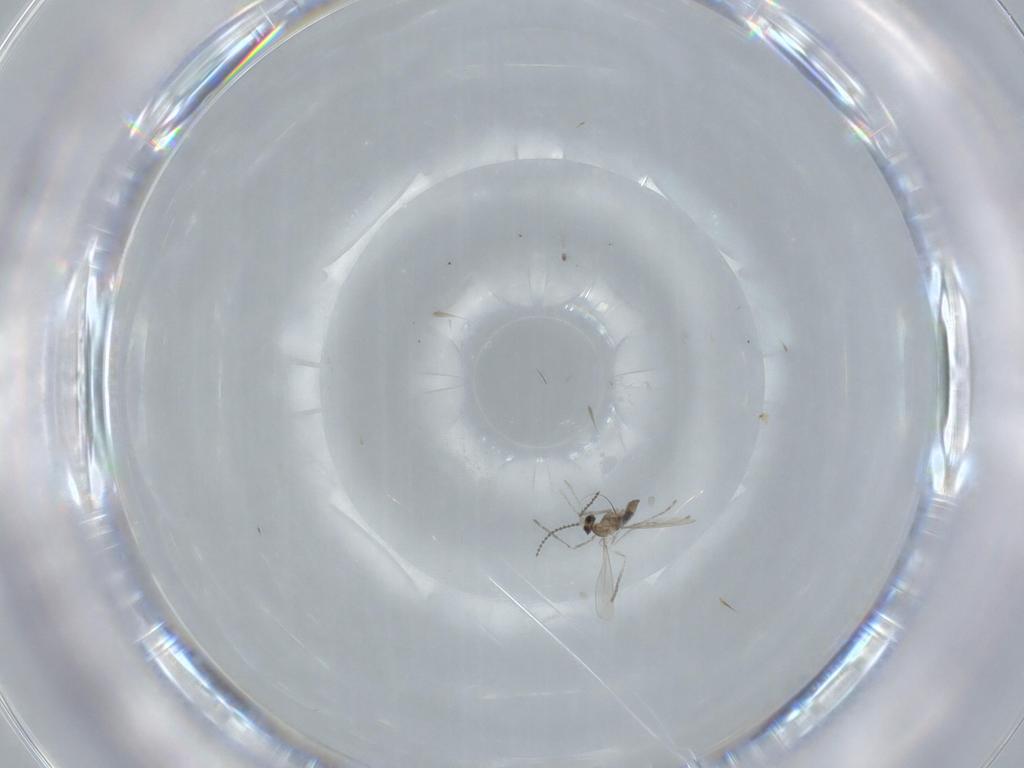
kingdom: Animalia
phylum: Arthropoda
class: Insecta
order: Diptera
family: Cecidomyiidae
